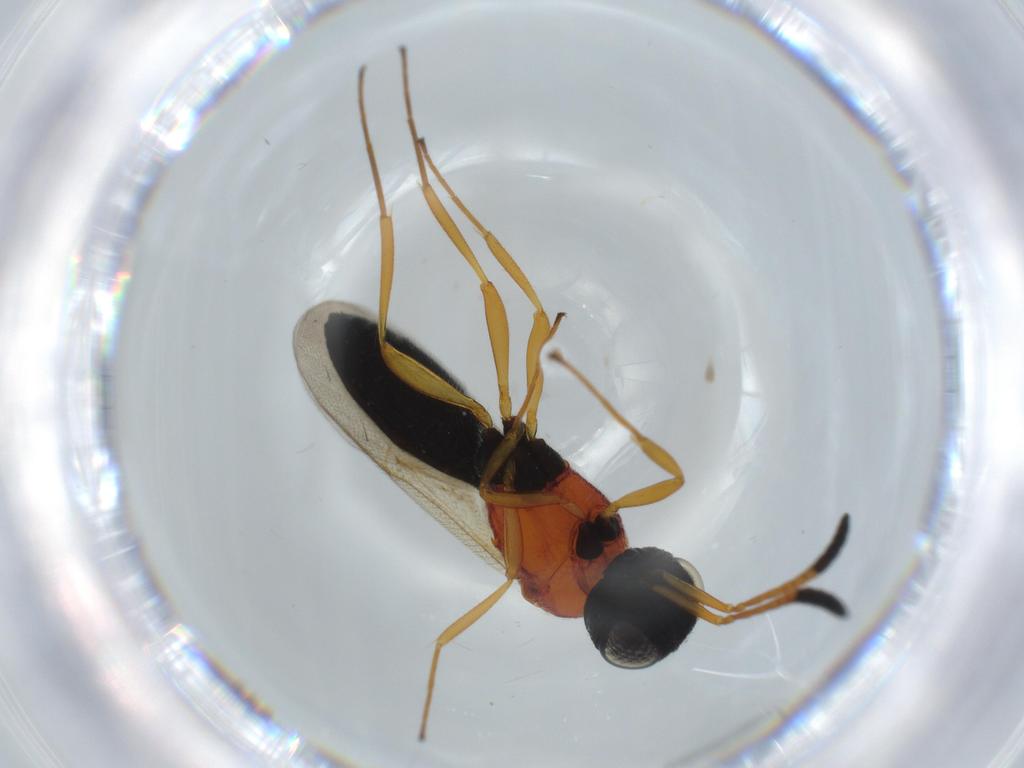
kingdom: Animalia
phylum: Arthropoda
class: Insecta
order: Hymenoptera
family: Scelionidae
